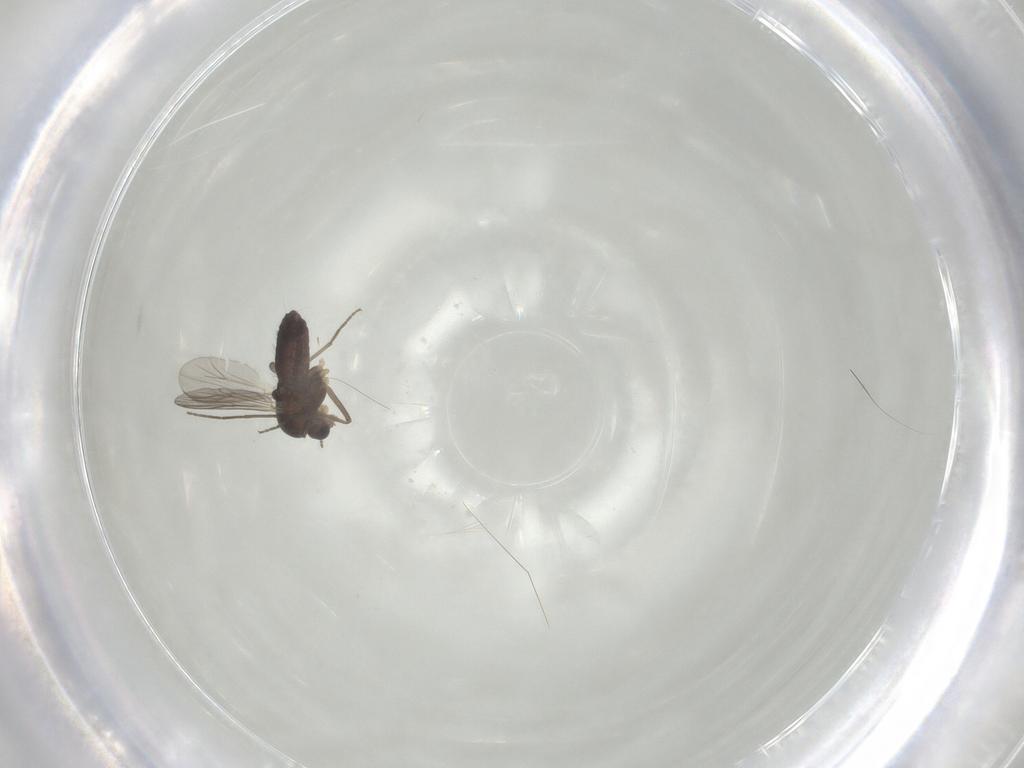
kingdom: Animalia
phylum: Arthropoda
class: Insecta
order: Diptera
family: Chironomidae
